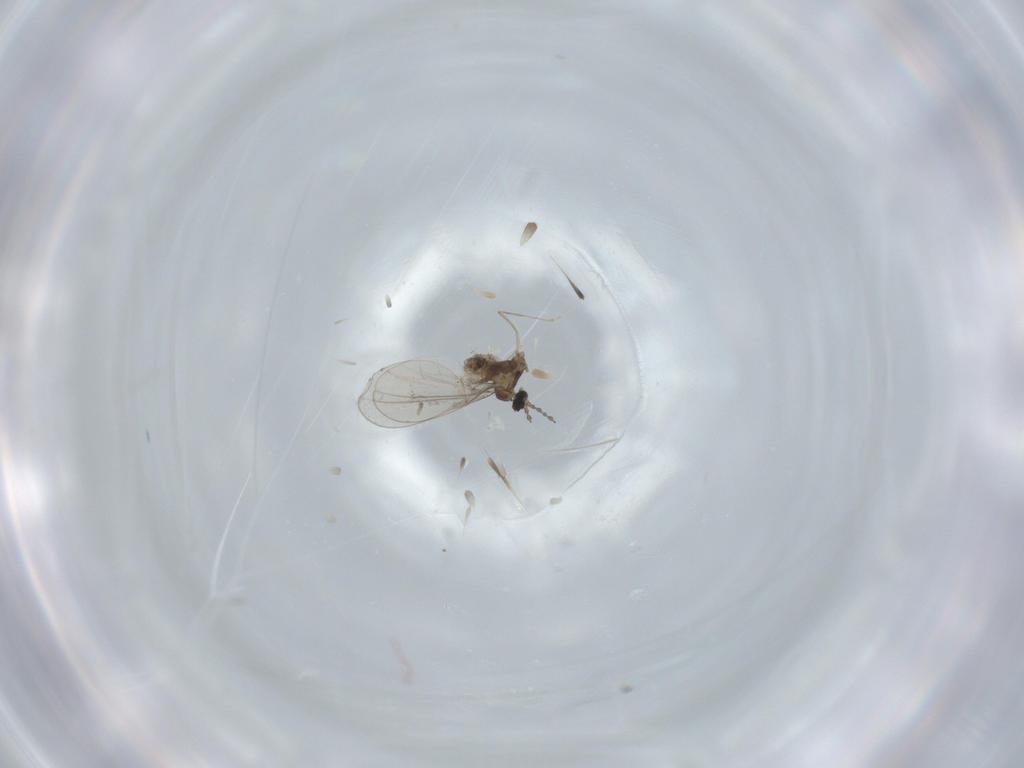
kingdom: Animalia
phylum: Arthropoda
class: Insecta
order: Diptera
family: Cecidomyiidae
